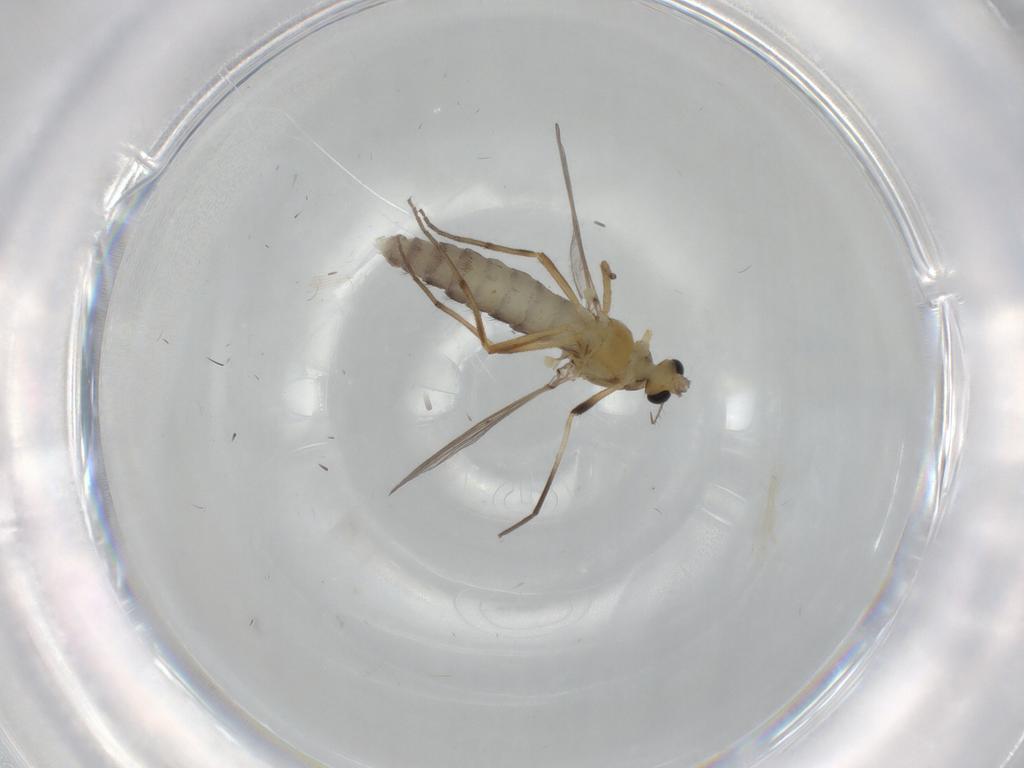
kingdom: Animalia
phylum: Arthropoda
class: Insecta
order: Diptera
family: Chironomidae
